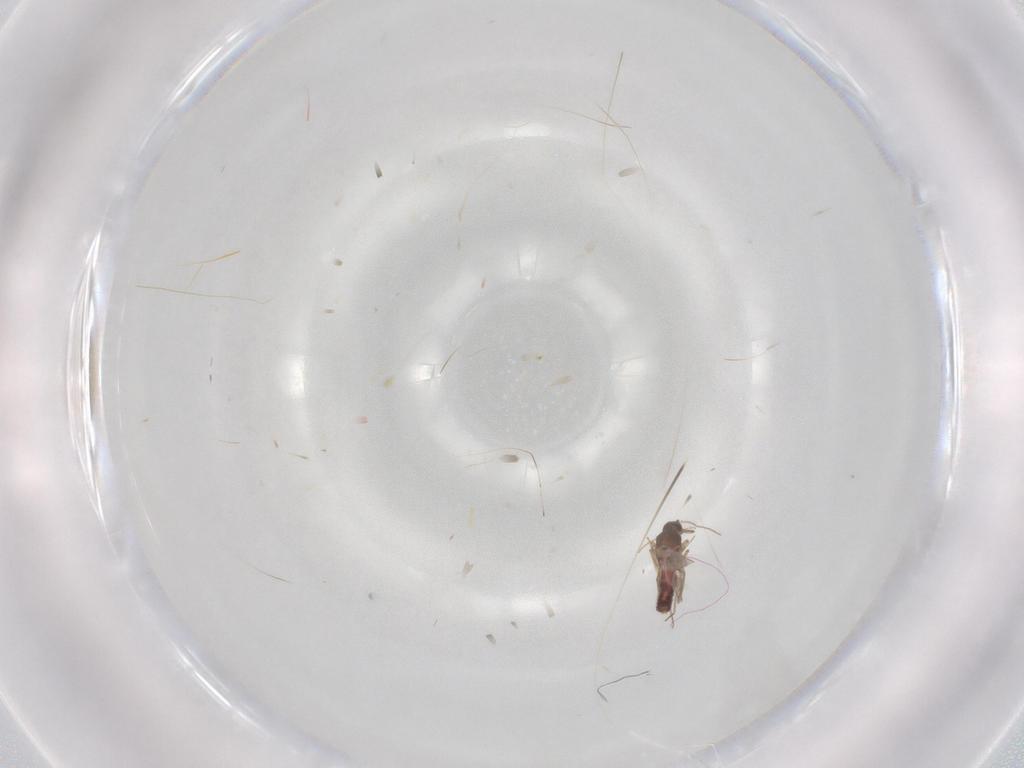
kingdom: Animalia
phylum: Arthropoda
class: Insecta
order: Diptera
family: Ceratopogonidae
